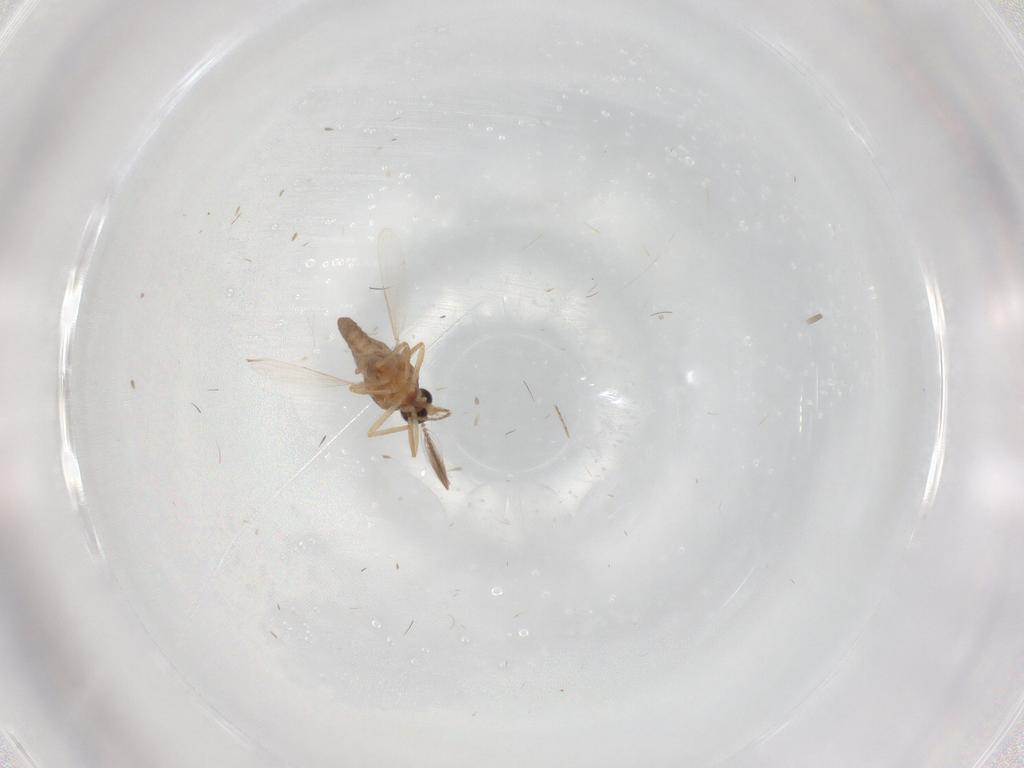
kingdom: Animalia
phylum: Arthropoda
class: Insecta
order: Diptera
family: Ceratopogonidae
